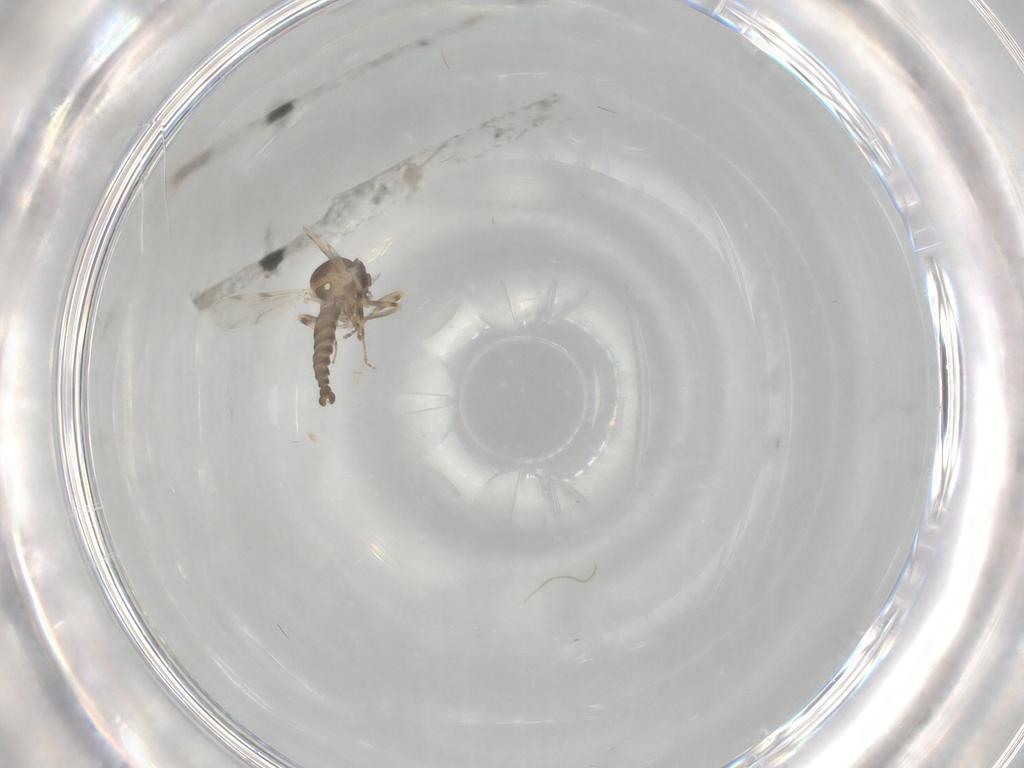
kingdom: Animalia
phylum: Arthropoda
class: Insecta
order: Diptera
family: Ceratopogonidae
